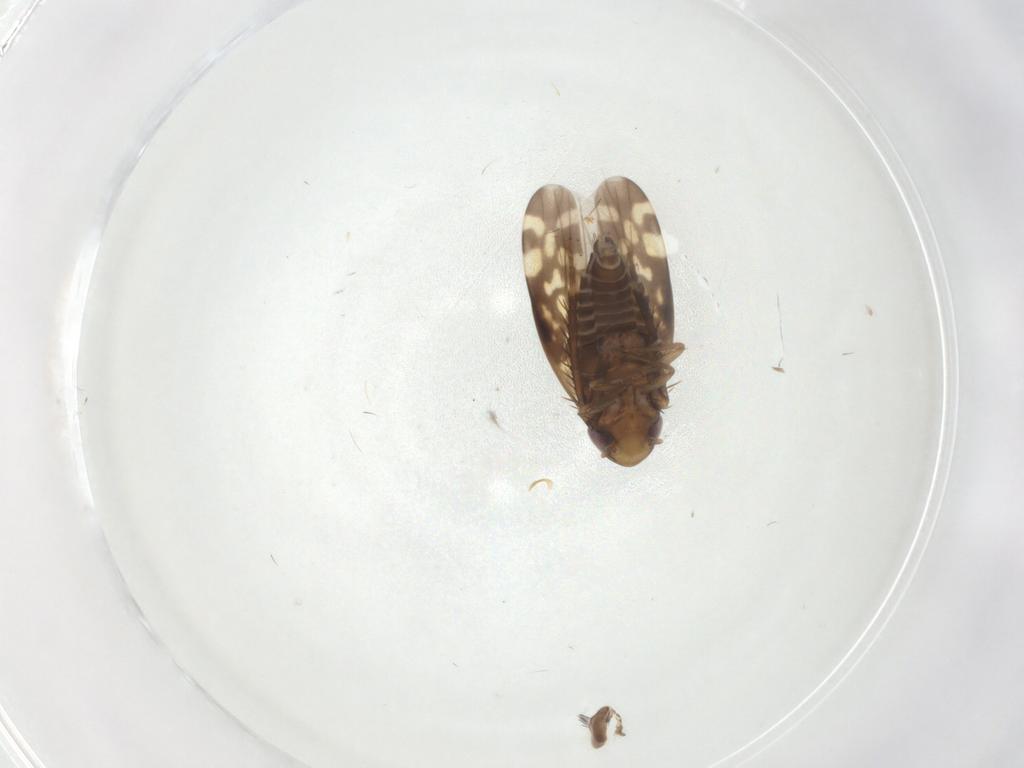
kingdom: Animalia
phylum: Arthropoda
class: Insecta
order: Hemiptera
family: Cicadellidae
